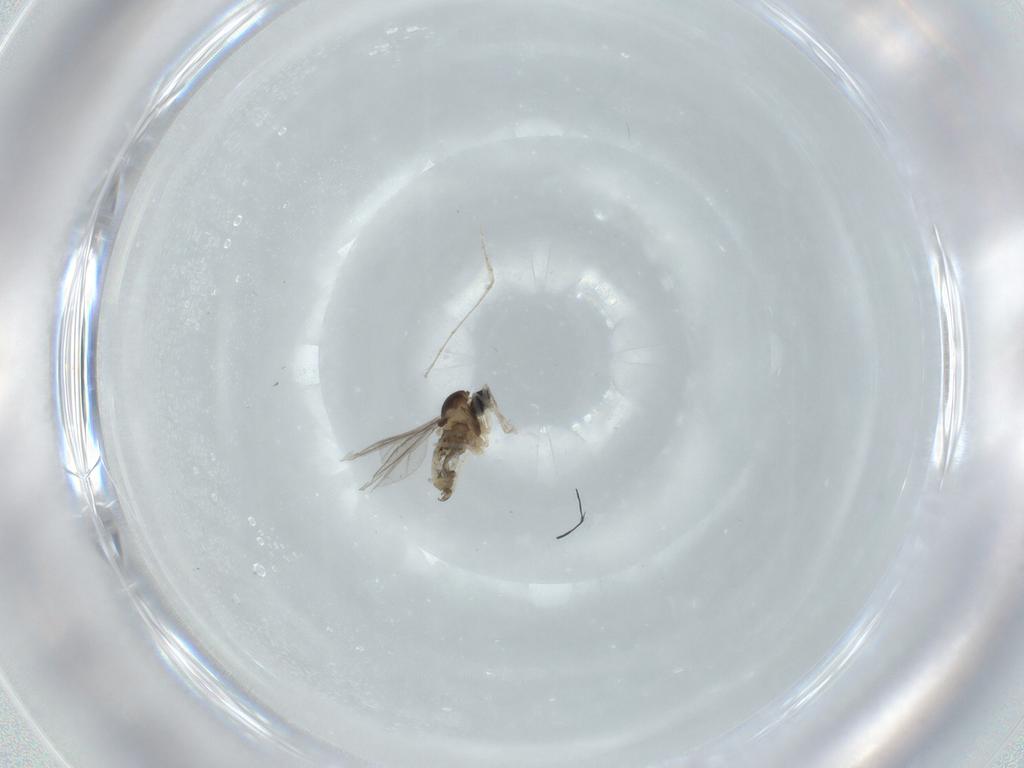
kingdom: Animalia
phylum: Arthropoda
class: Insecta
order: Diptera
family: Cecidomyiidae
